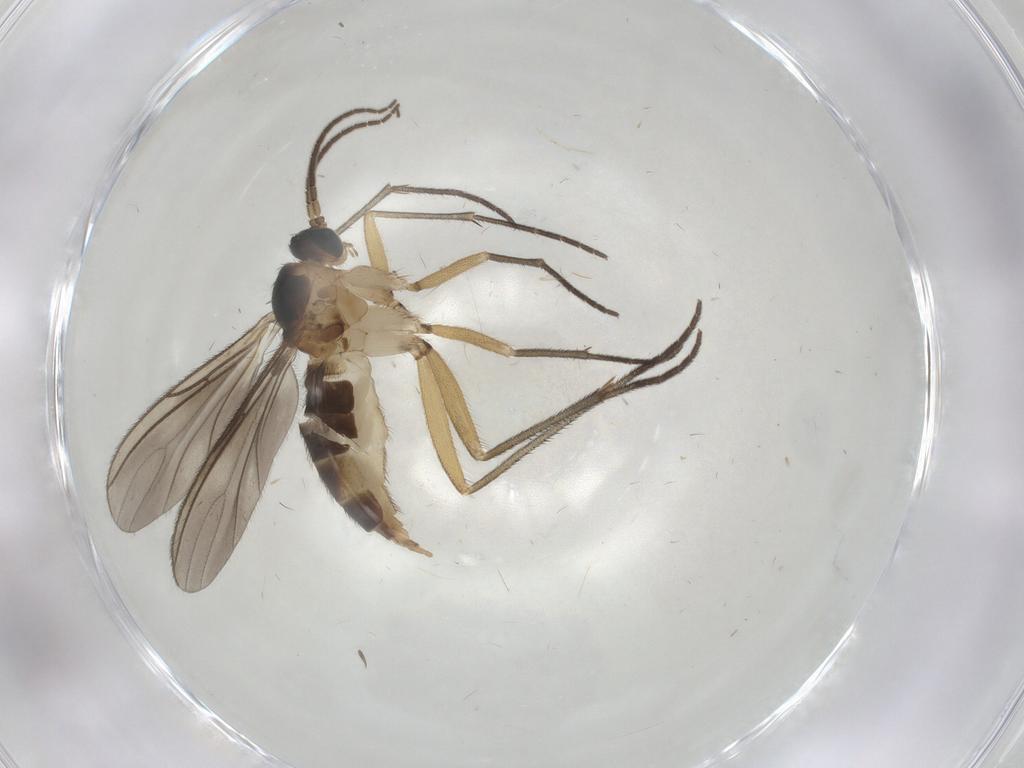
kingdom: Animalia
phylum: Arthropoda
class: Insecta
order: Diptera
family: Sciaridae
